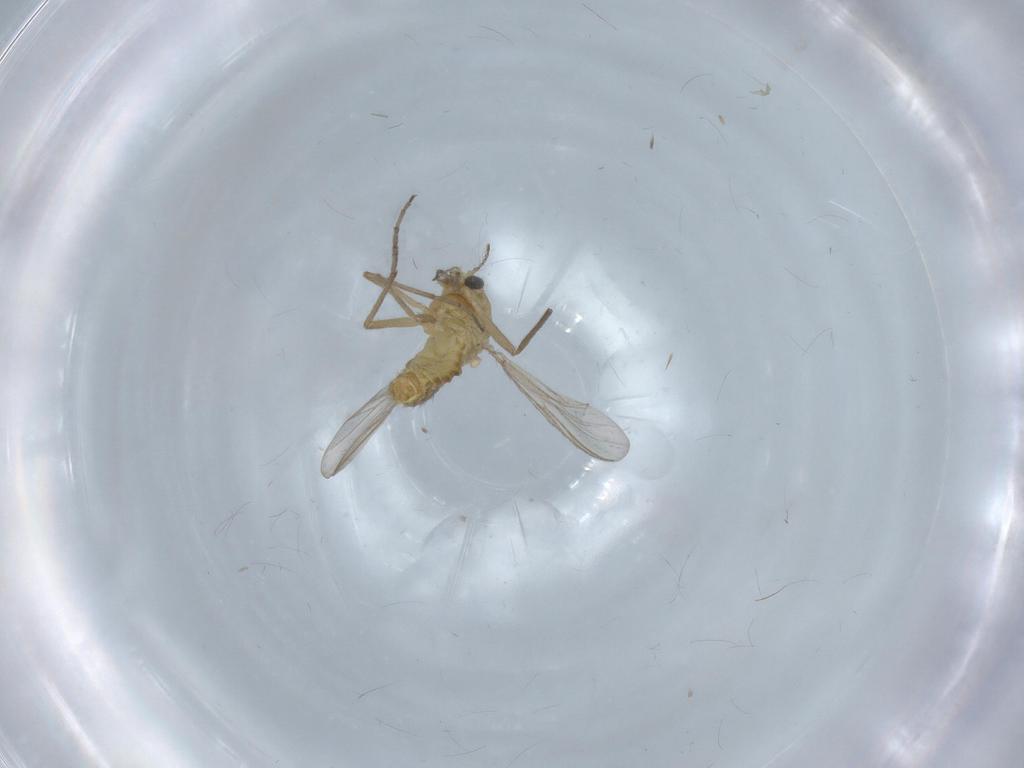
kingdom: Animalia
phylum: Arthropoda
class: Insecta
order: Diptera
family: Chironomidae
